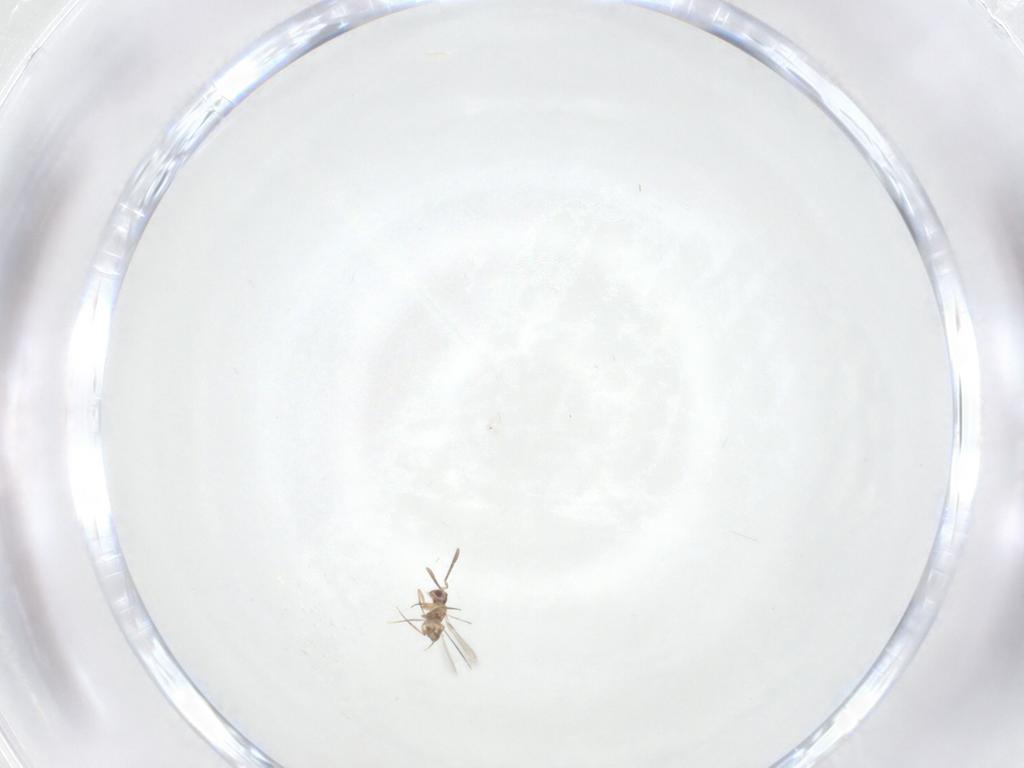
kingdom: Animalia
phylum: Arthropoda
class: Insecta
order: Hymenoptera
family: Mymaridae
